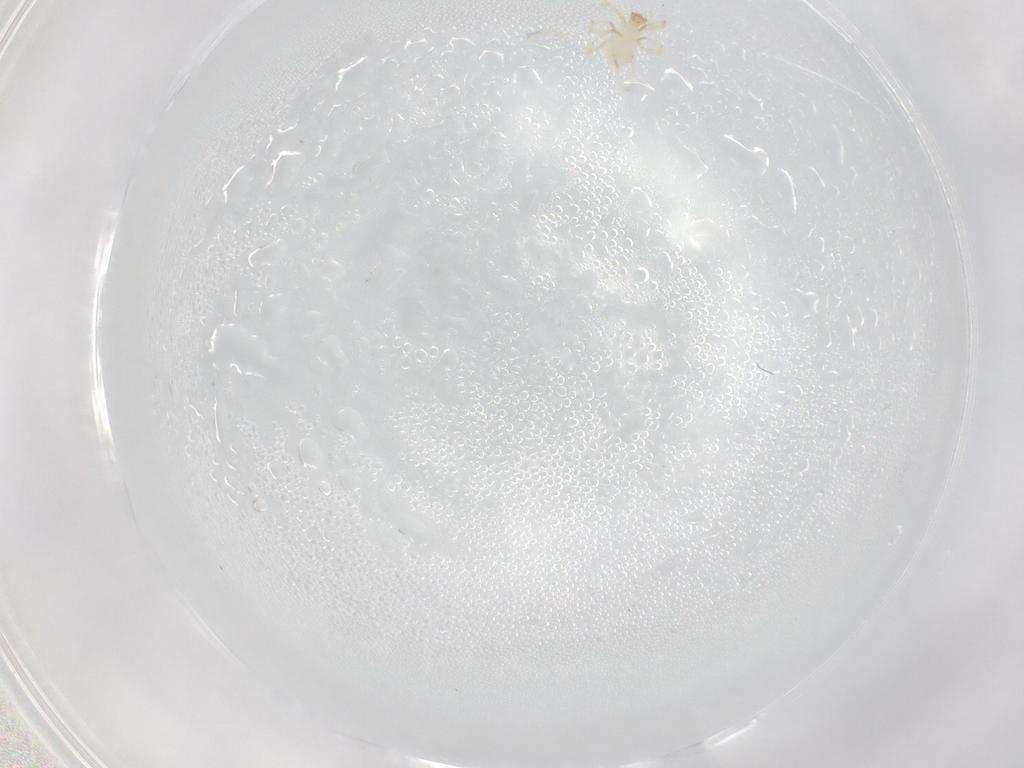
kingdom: Animalia
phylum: Arthropoda
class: Arachnida
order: Trombidiformes
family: Erythraeidae
